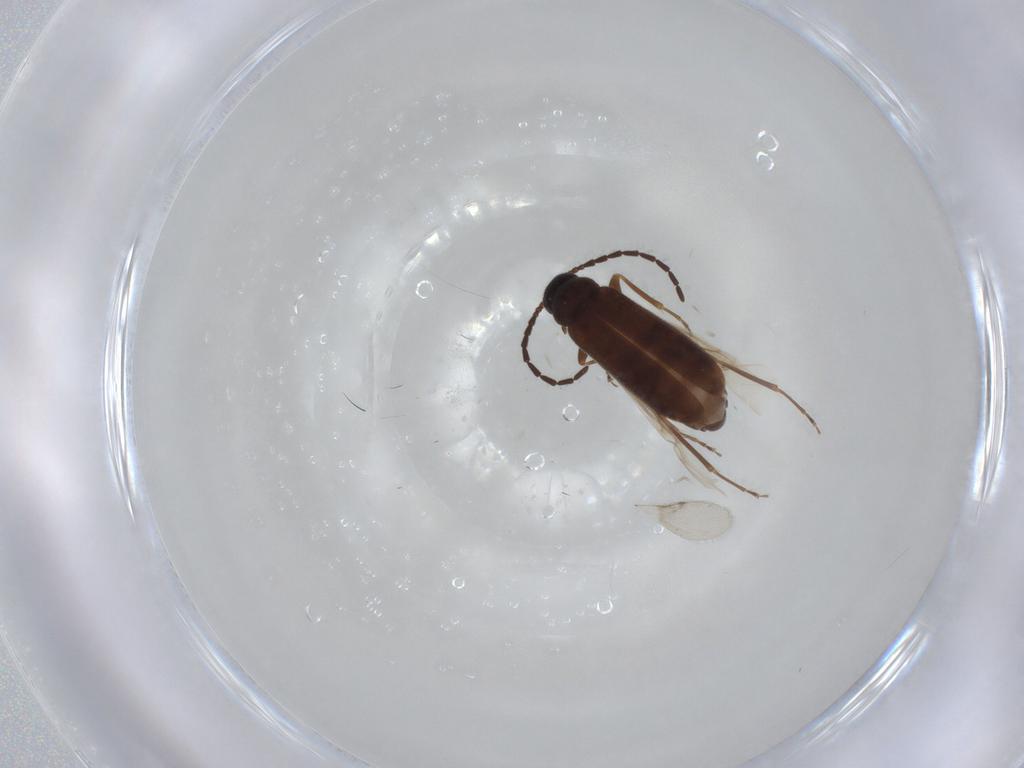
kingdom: Animalia
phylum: Arthropoda
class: Insecta
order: Coleoptera
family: Scraptiidae
